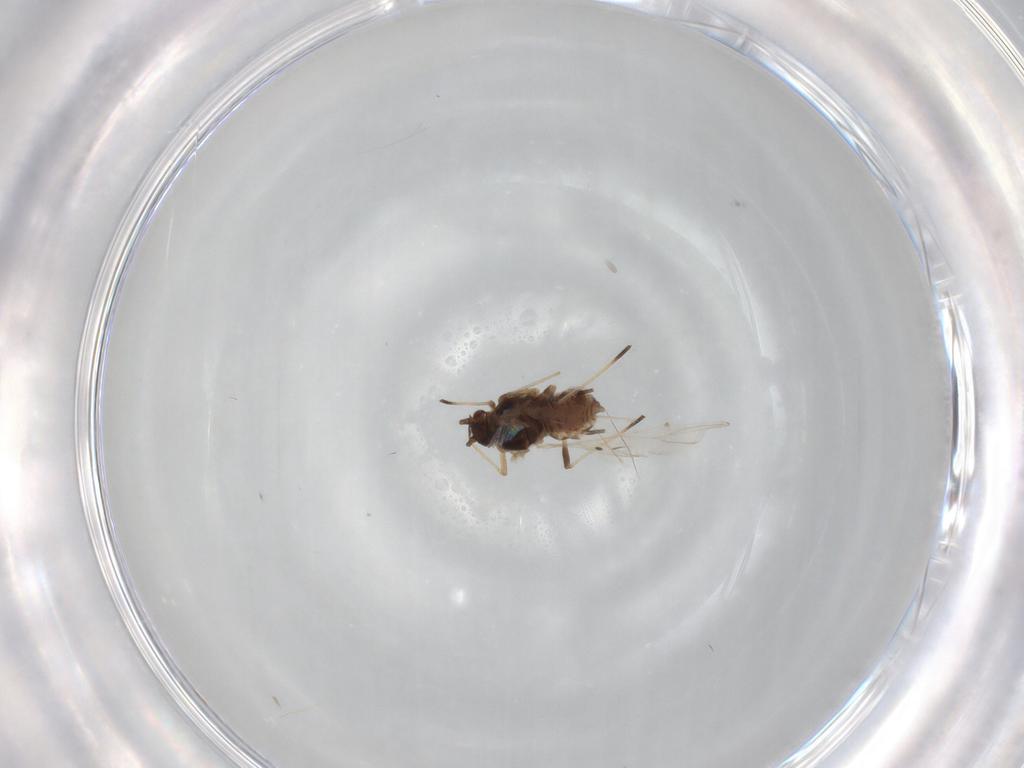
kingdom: Animalia
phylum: Arthropoda
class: Insecta
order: Hemiptera
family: Aphididae
